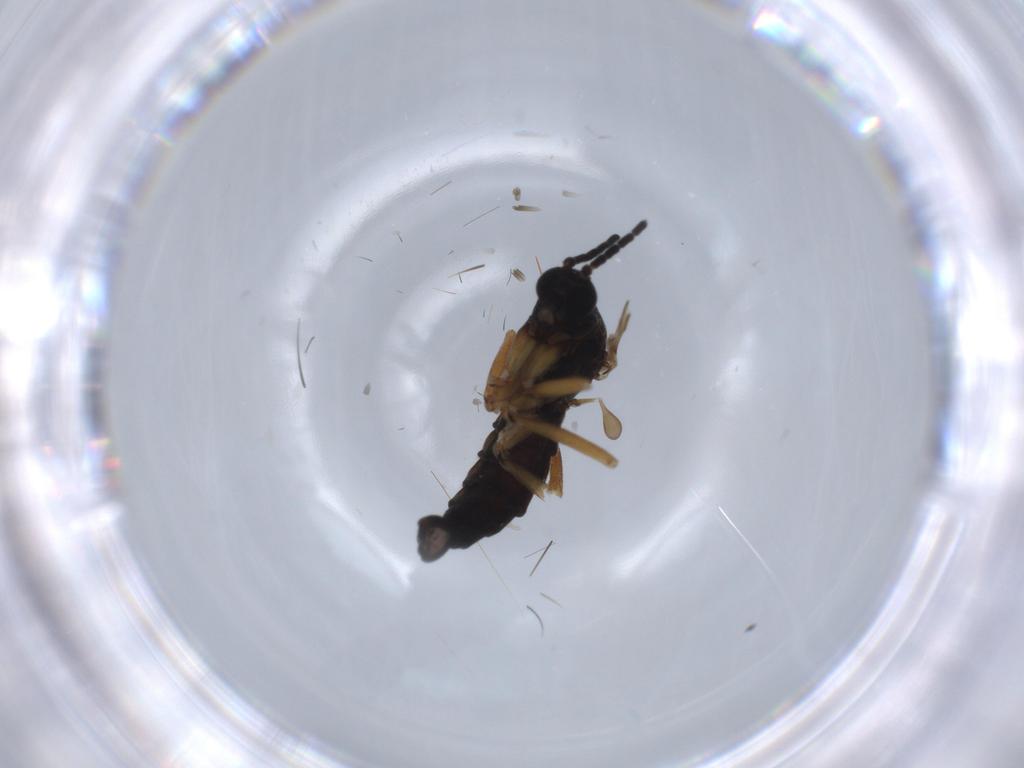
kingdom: Animalia
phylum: Arthropoda
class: Insecta
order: Diptera
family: Sciaridae
